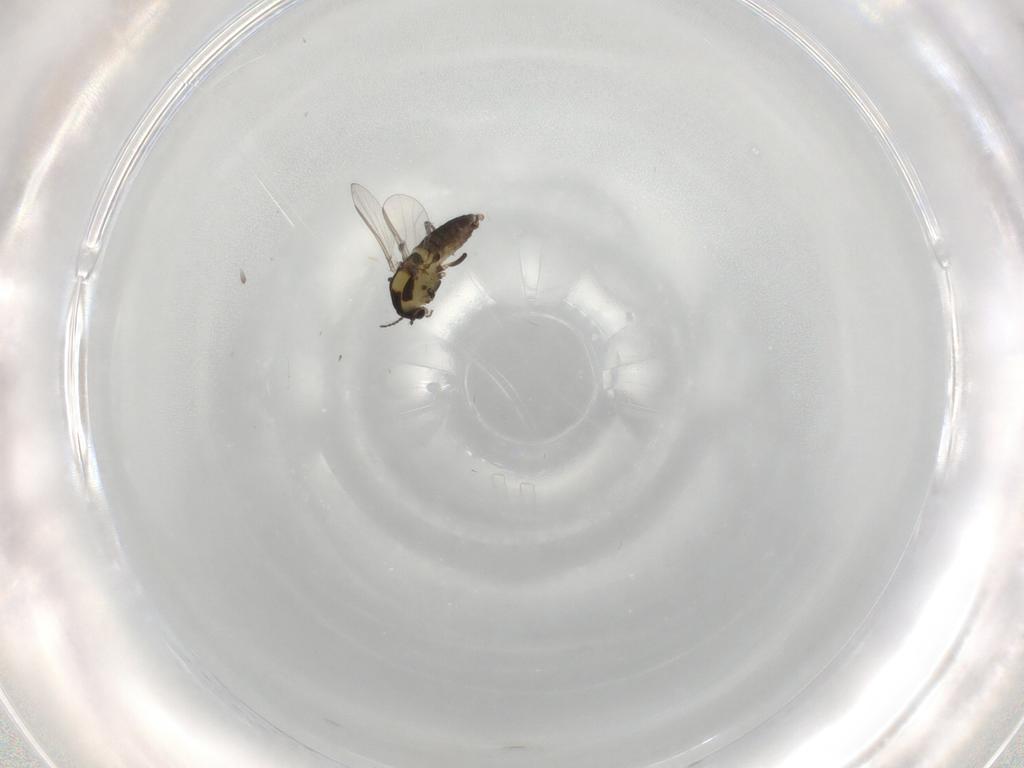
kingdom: Animalia
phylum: Arthropoda
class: Insecta
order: Diptera
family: Chironomidae
